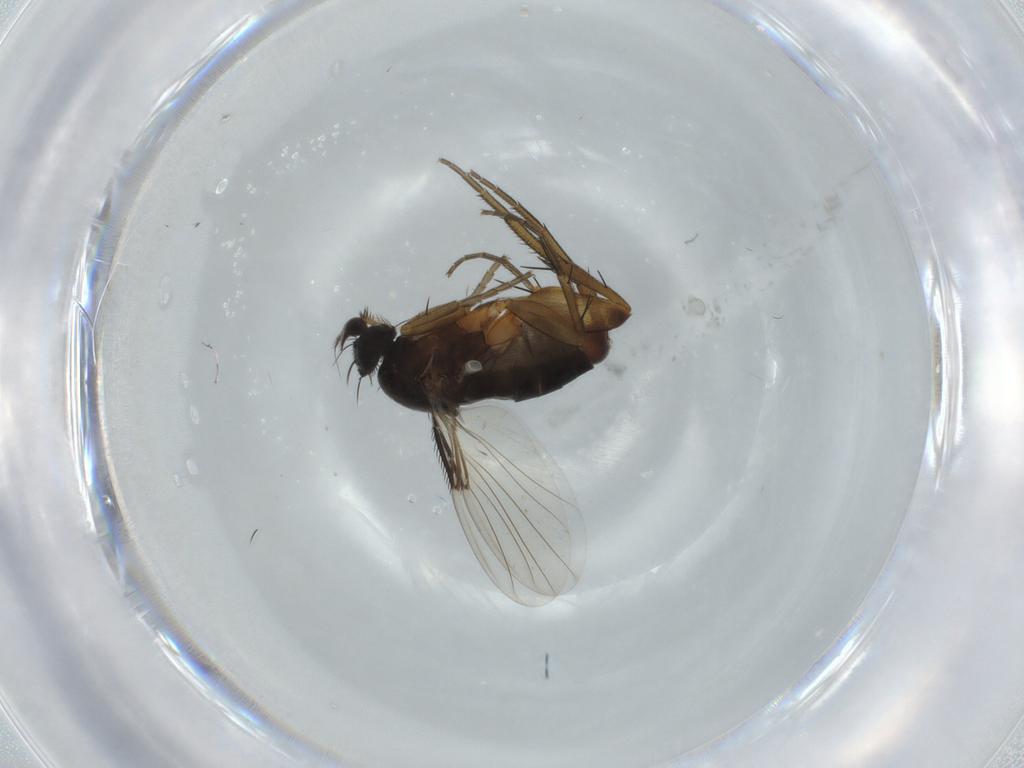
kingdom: Animalia
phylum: Arthropoda
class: Insecta
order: Diptera
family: Phoridae
